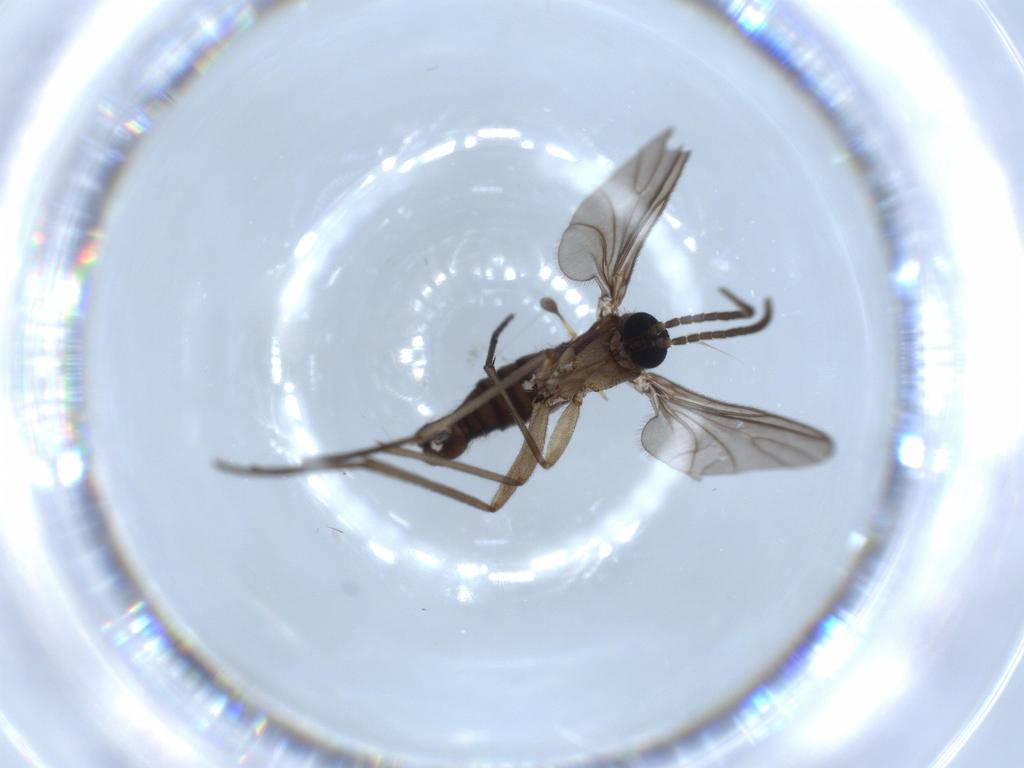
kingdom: Animalia
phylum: Arthropoda
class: Insecta
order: Diptera
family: Sciaridae
